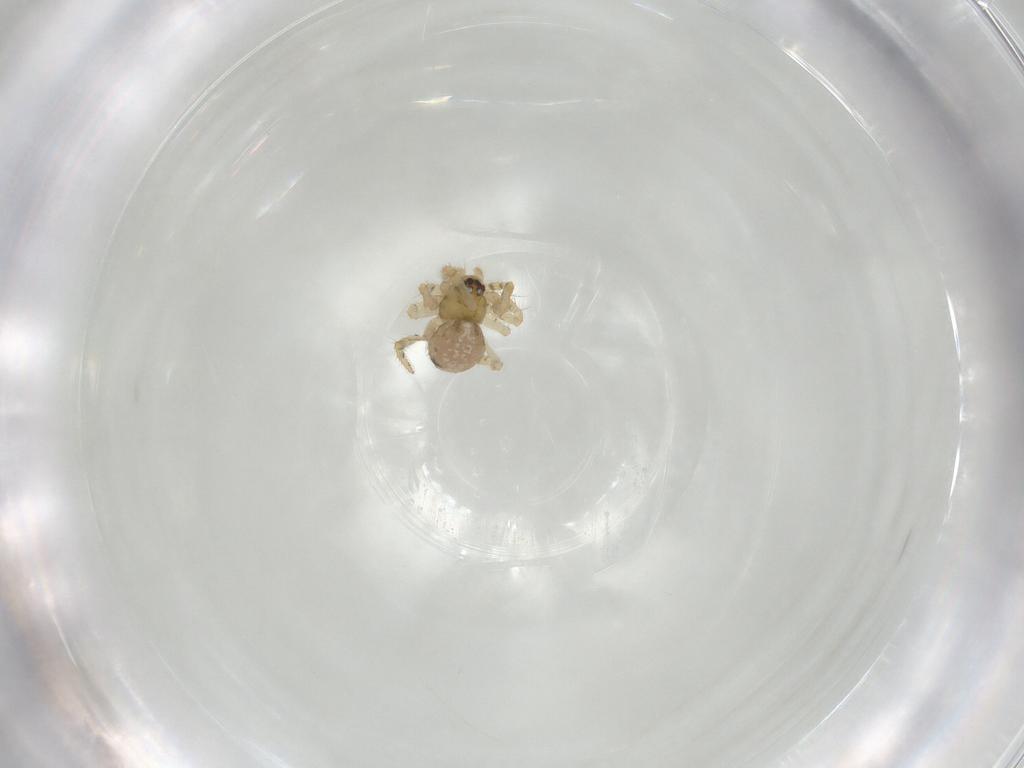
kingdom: Animalia
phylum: Arthropoda
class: Arachnida
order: Araneae
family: Theridiidae
